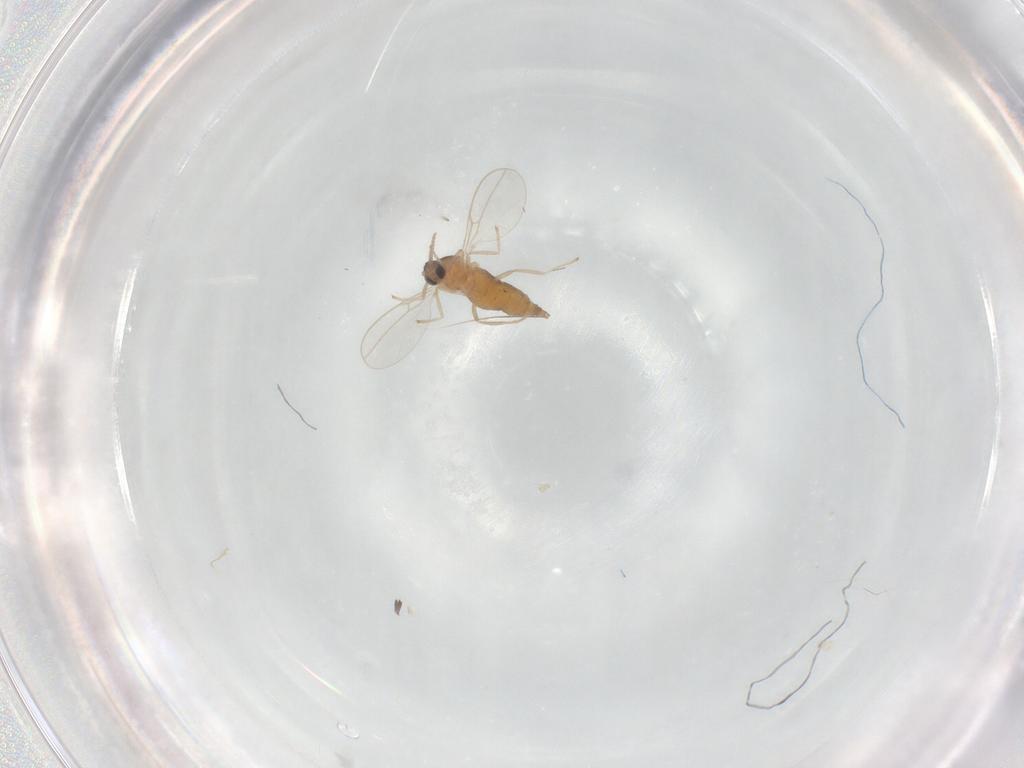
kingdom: Animalia
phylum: Arthropoda
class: Insecta
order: Diptera
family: Cecidomyiidae
